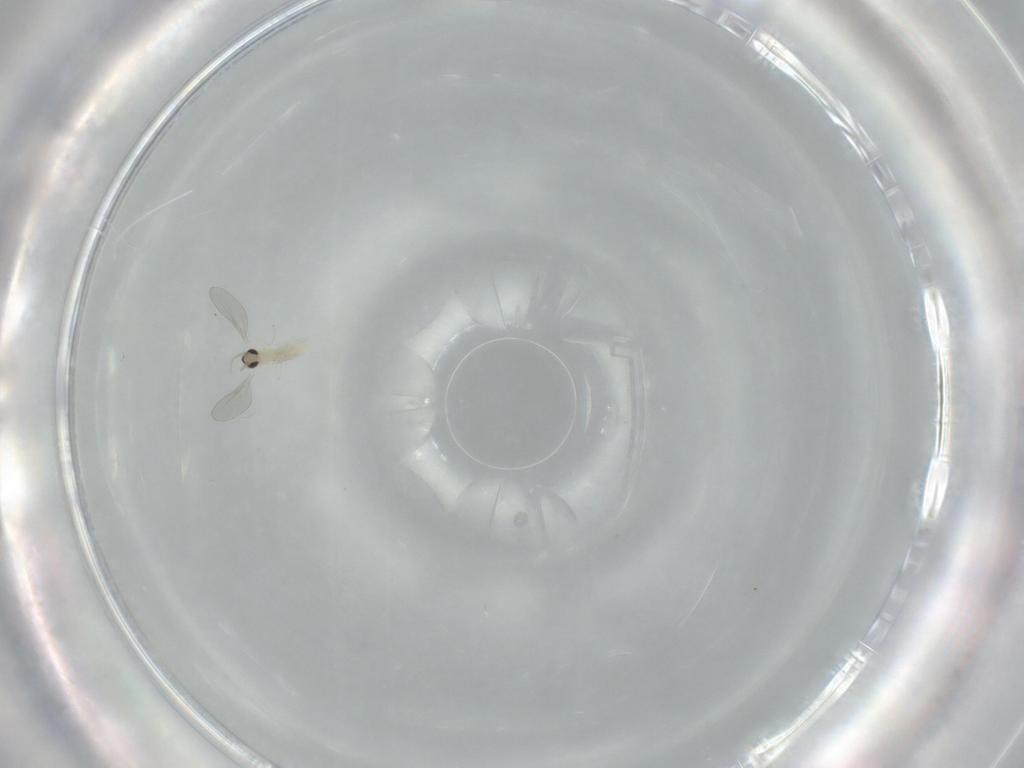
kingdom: Animalia
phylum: Arthropoda
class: Insecta
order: Diptera
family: Cecidomyiidae
